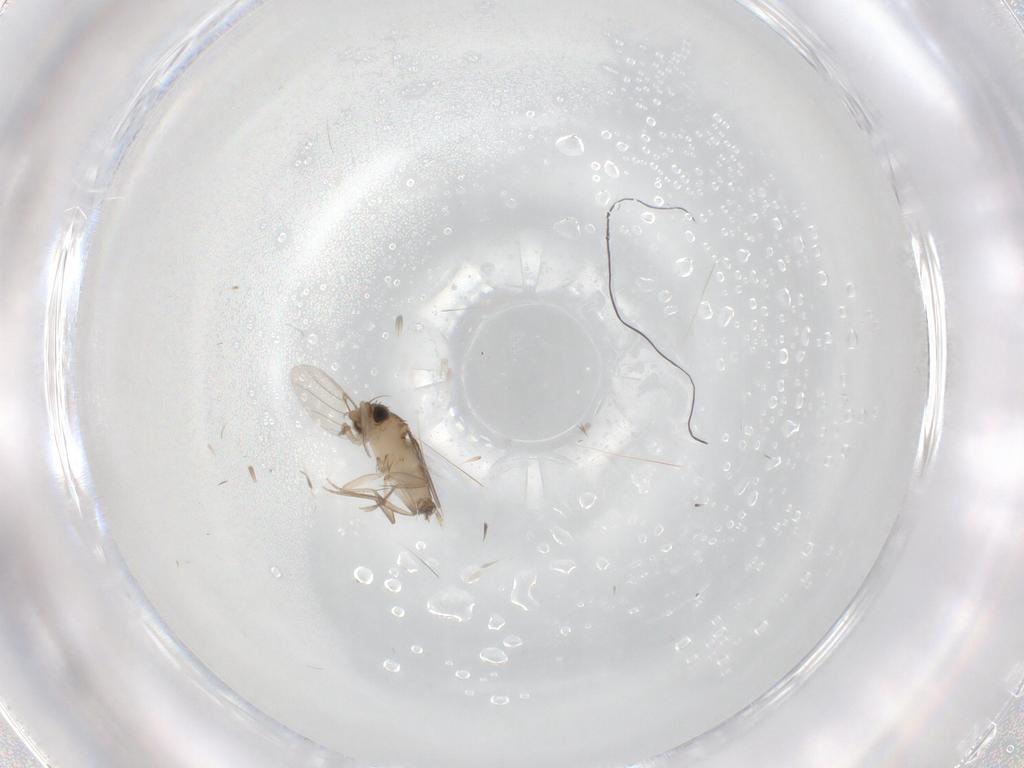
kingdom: Animalia
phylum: Arthropoda
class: Insecta
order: Diptera
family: Phoridae
